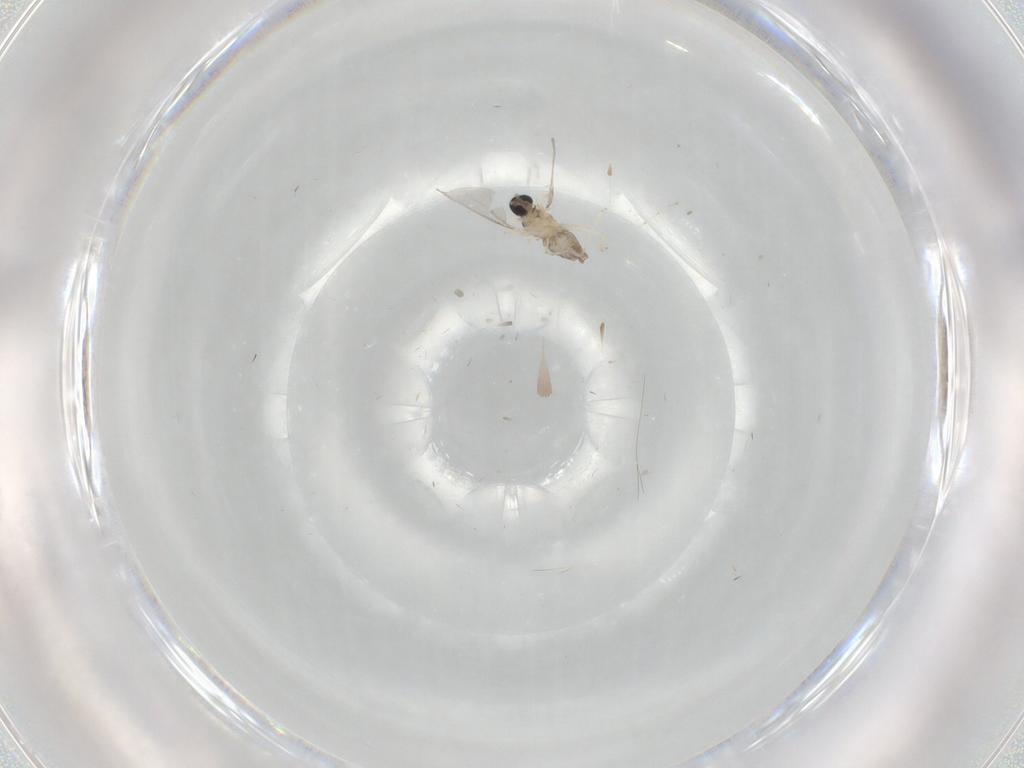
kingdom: Animalia
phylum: Arthropoda
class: Insecta
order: Diptera
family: Cecidomyiidae
